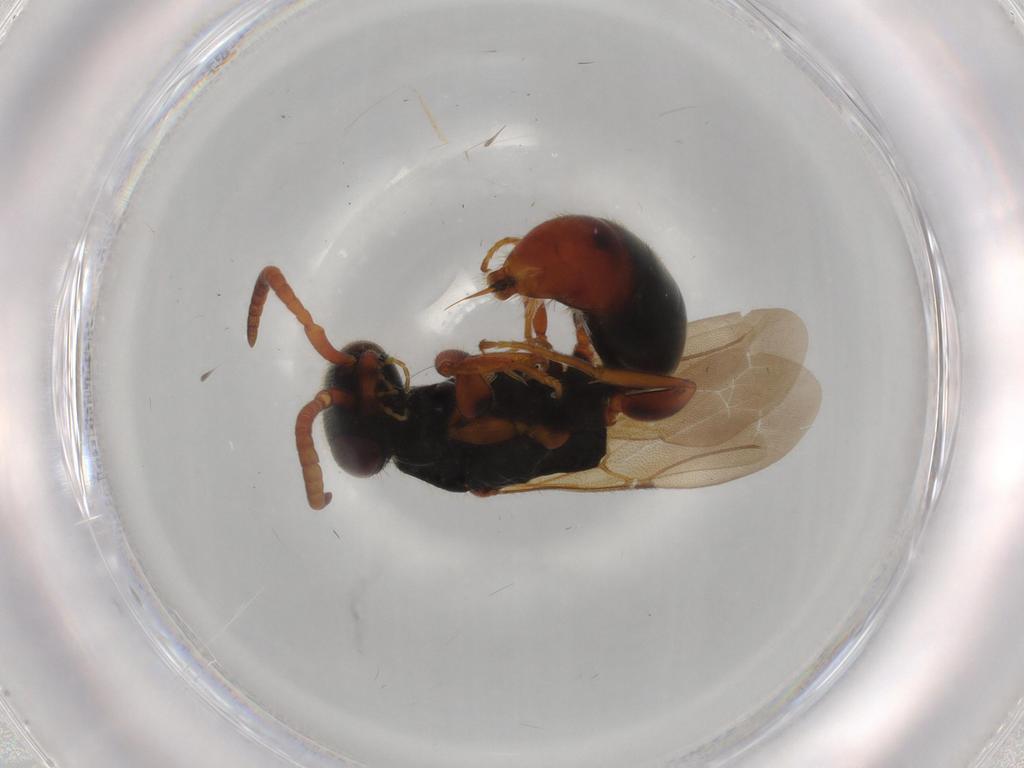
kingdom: Animalia
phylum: Arthropoda
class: Insecta
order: Hymenoptera
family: Bethylidae
